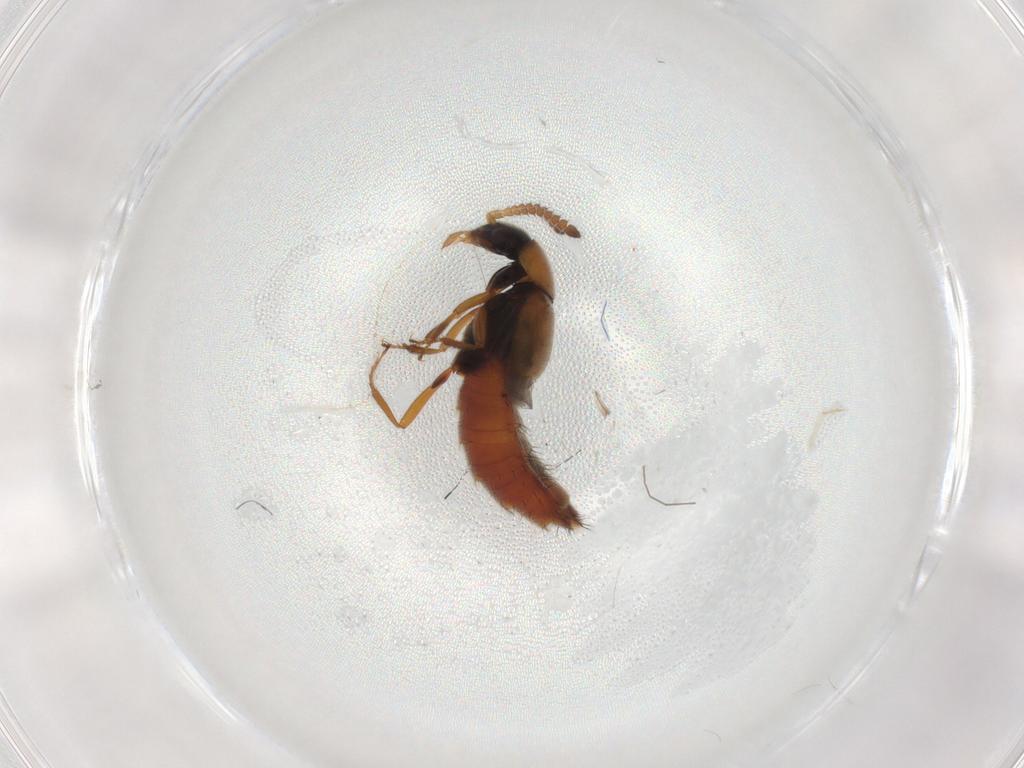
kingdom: Animalia
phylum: Arthropoda
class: Insecta
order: Coleoptera
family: Staphylinidae
